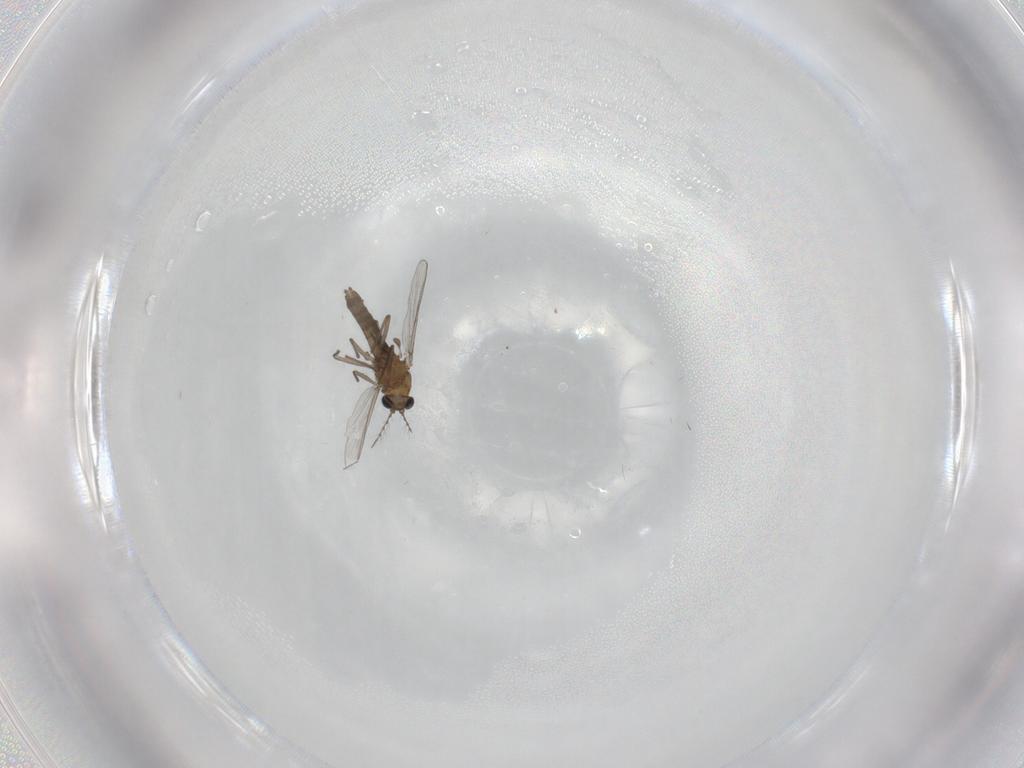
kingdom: Animalia
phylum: Arthropoda
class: Insecta
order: Diptera
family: Chironomidae
